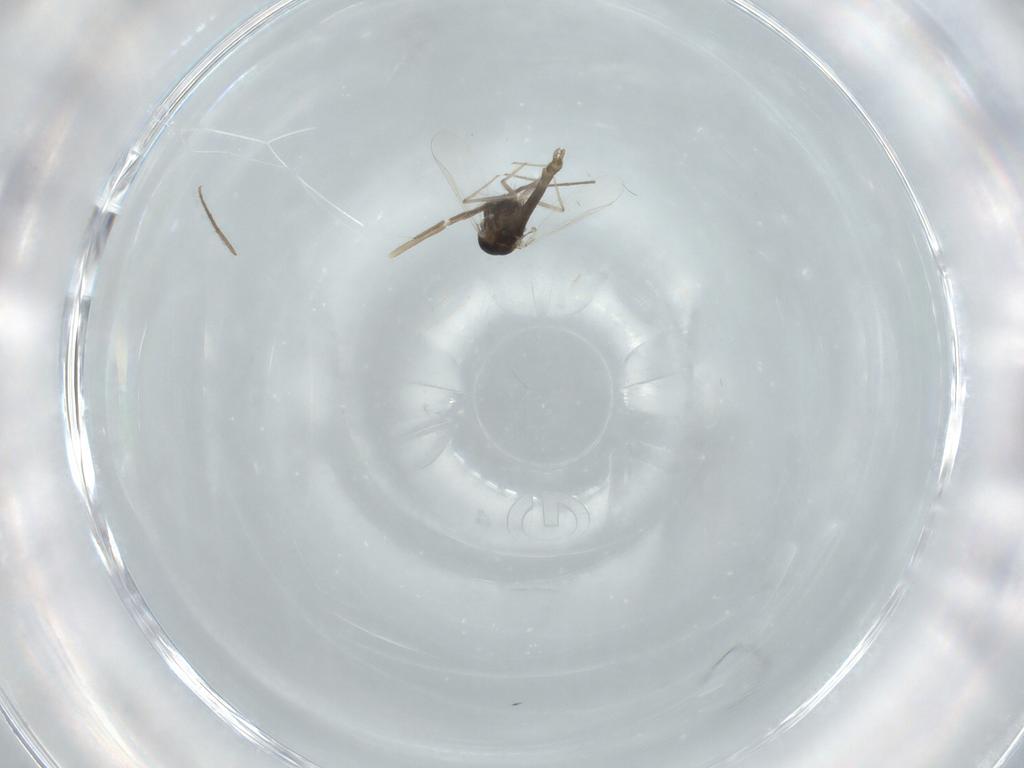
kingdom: Animalia
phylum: Arthropoda
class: Insecta
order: Diptera
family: Chironomidae
